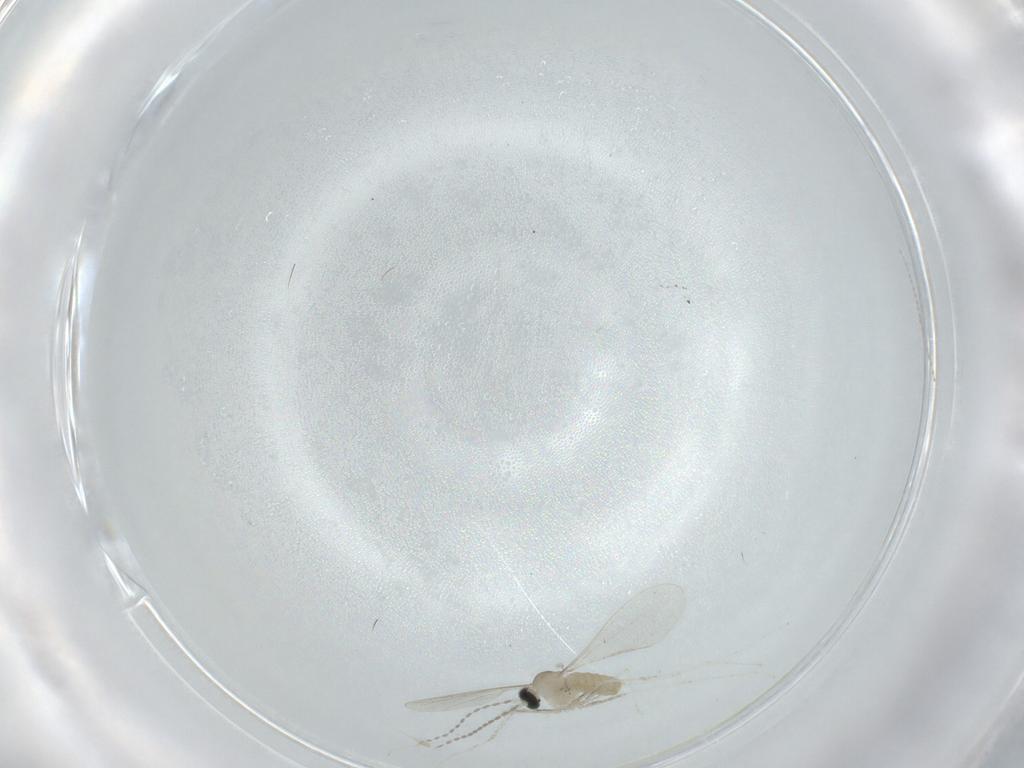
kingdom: Animalia
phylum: Arthropoda
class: Insecta
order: Diptera
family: Cecidomyiidae
